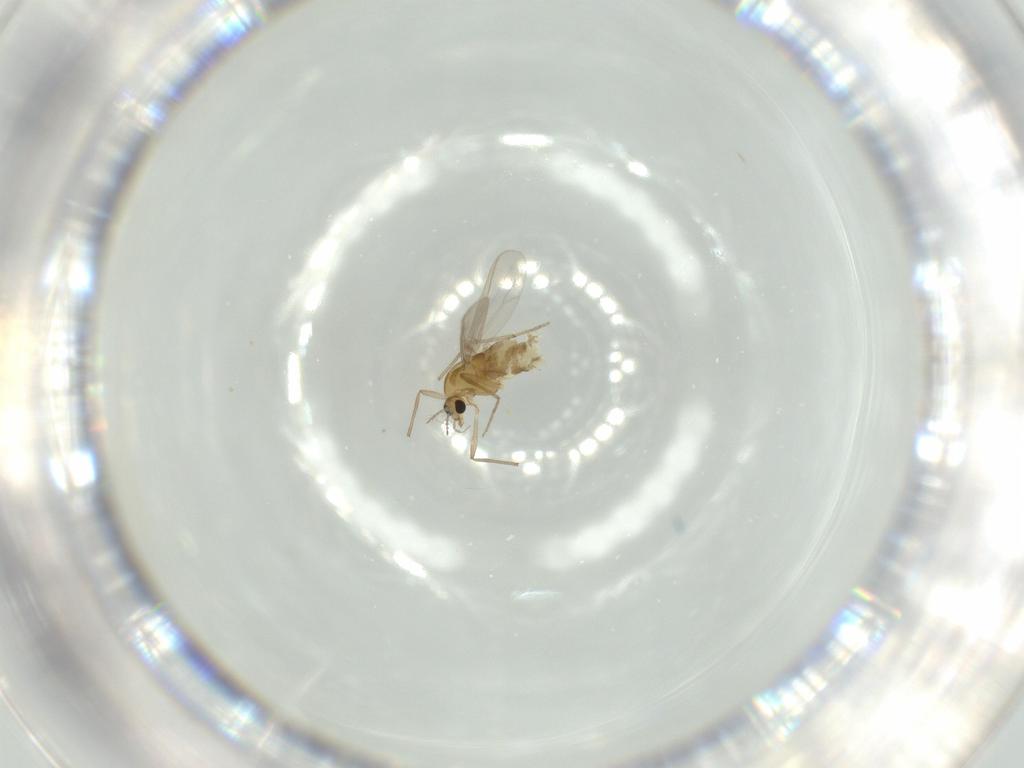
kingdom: Animalia
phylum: Arthropoda
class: Insecta
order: Diptera
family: Chironomidae
